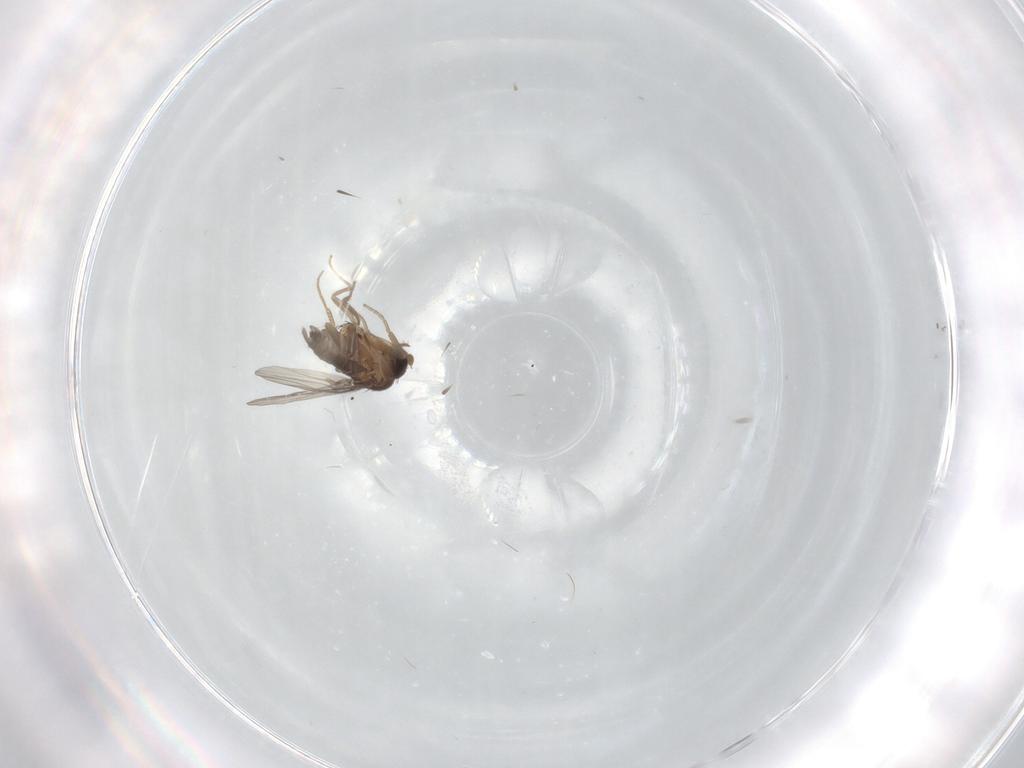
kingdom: Animalia
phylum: Arthropoda
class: Insecta
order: Diptera
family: Phoridae
